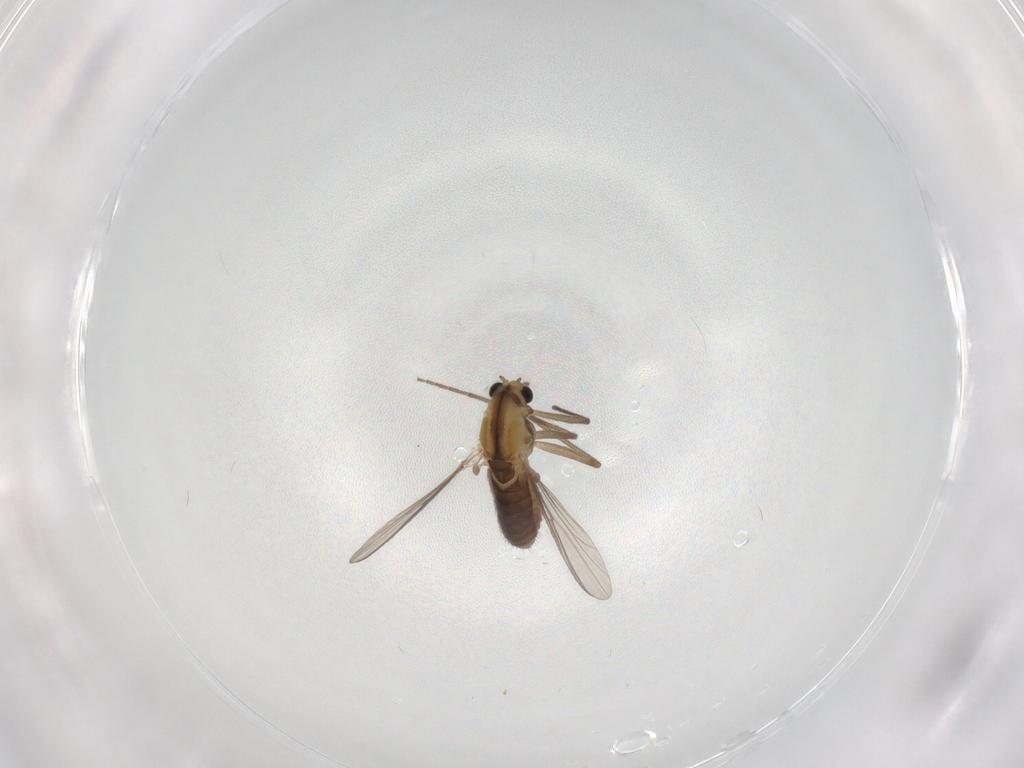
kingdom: Animalia
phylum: Arthropoda
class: Insecta
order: Diptera
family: Chironomidae
